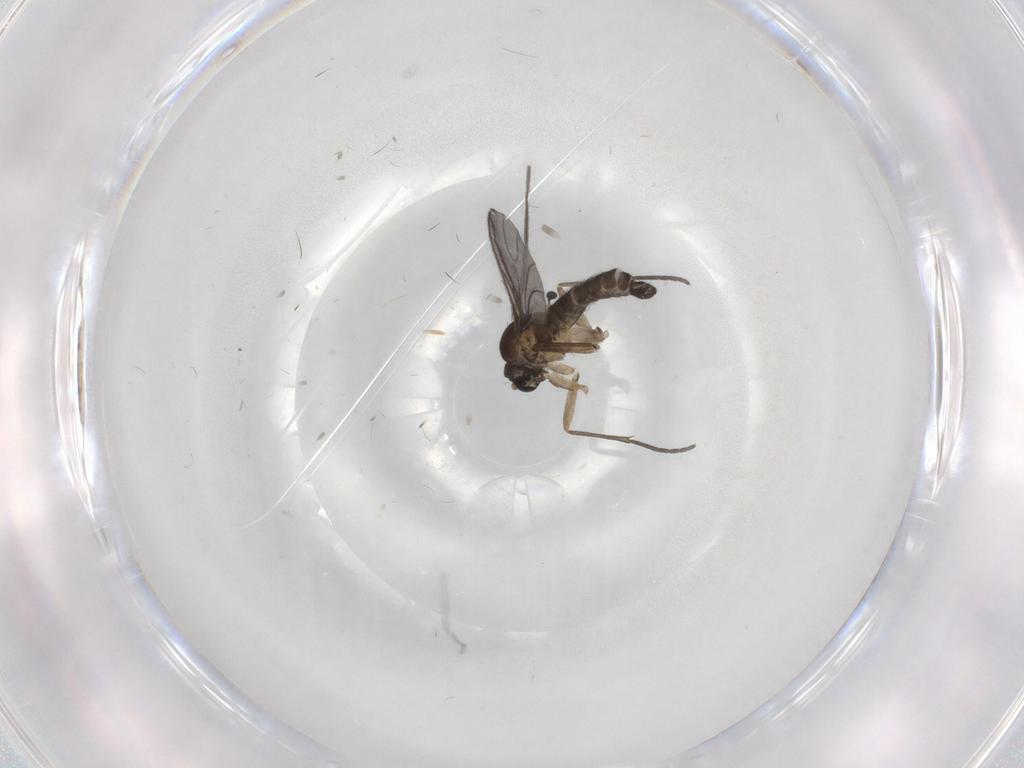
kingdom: Animalia
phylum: Arthropoda
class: Insecta
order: Diptera
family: Sciaridae
